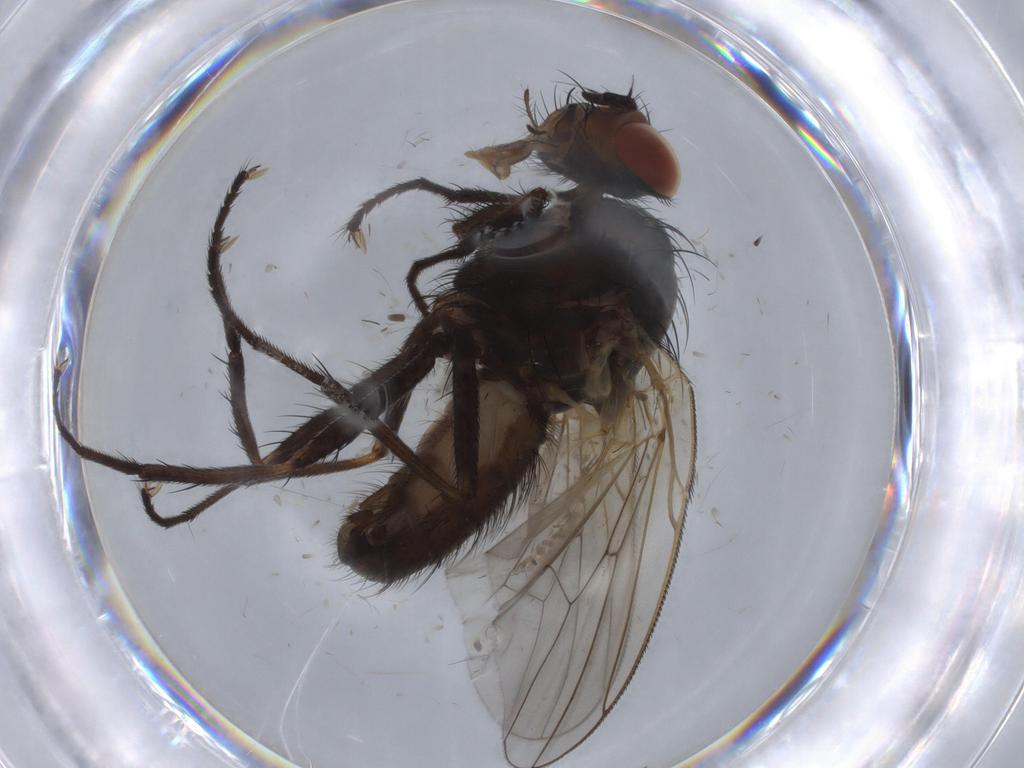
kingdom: Animalia
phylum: Arthropoda
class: Insecta
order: Diptera
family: Anthomyiidae
